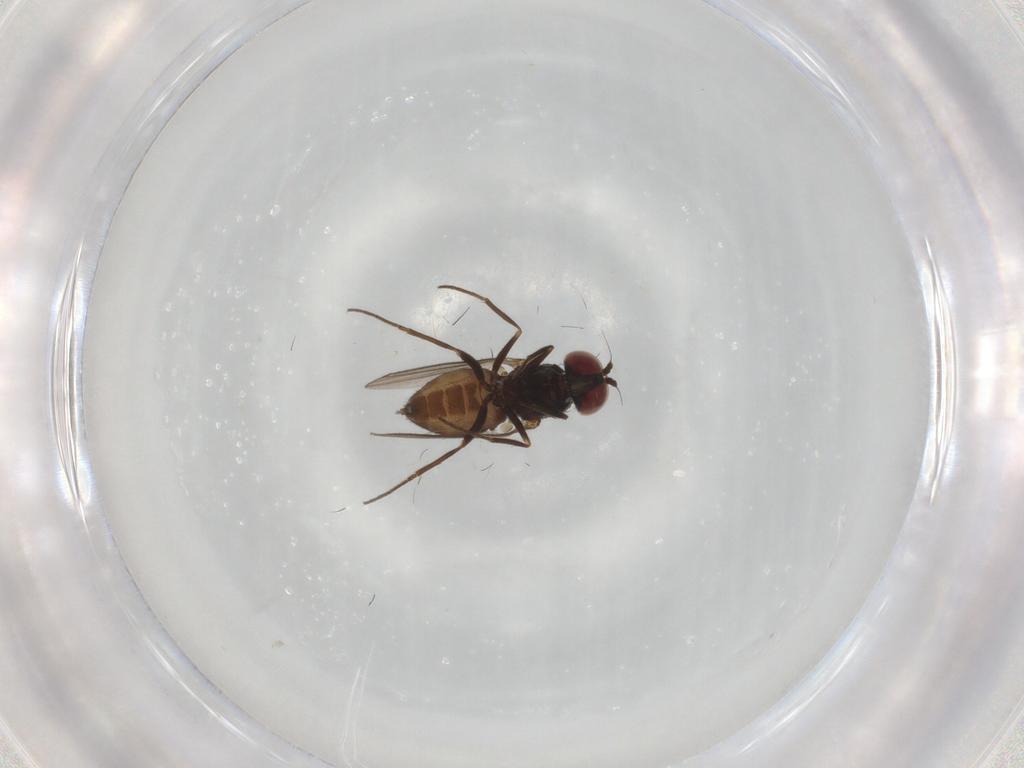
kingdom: Animalia
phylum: Arthropoda
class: Insecta
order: Diptera
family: Dolichopodidae
